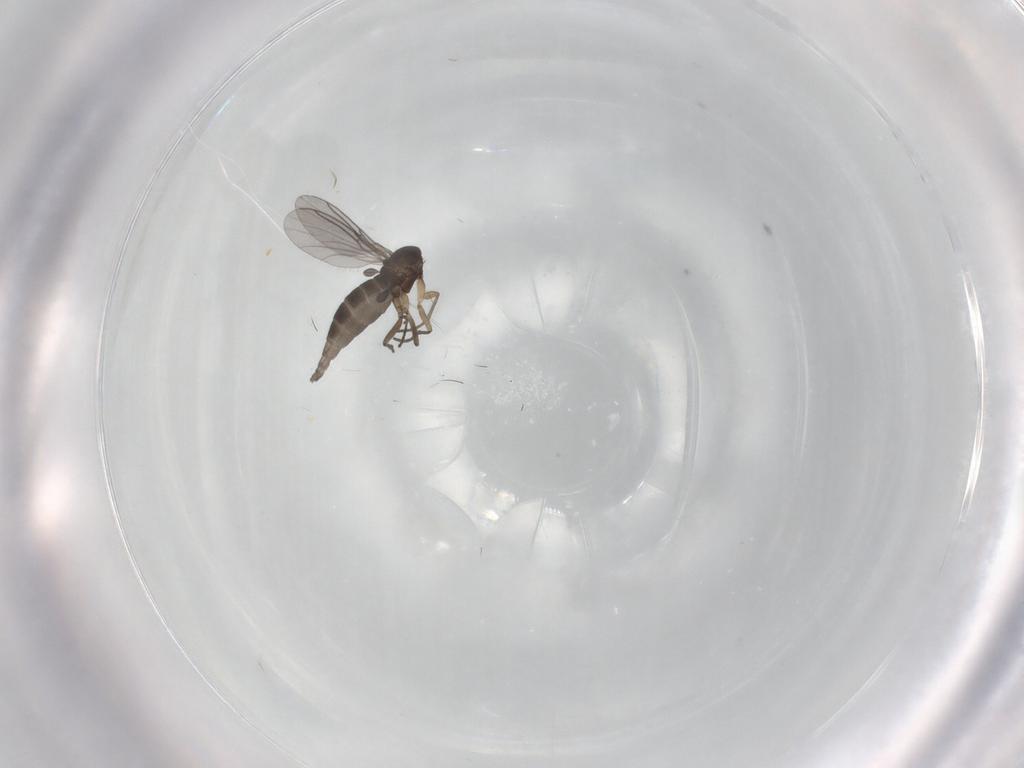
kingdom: Animalia
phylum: Arthropoda
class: Insecta
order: Diptera
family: Sciaridae
